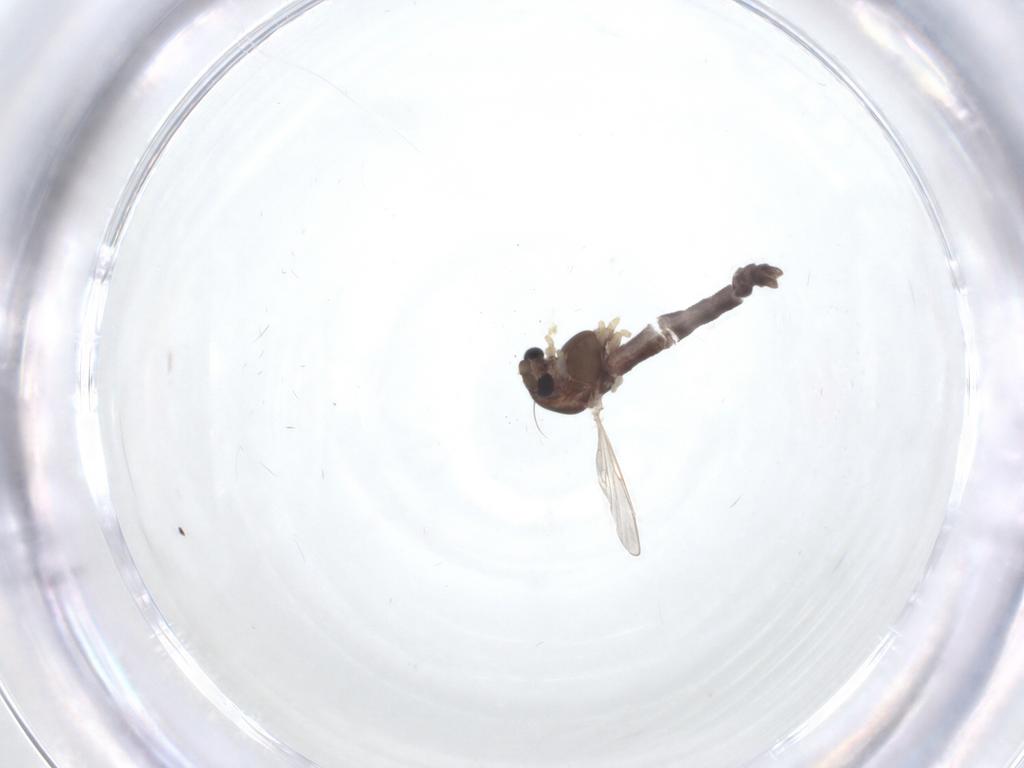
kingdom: Animalia
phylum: Arthropoda
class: Insecta
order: Diptera
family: Chironomidae
